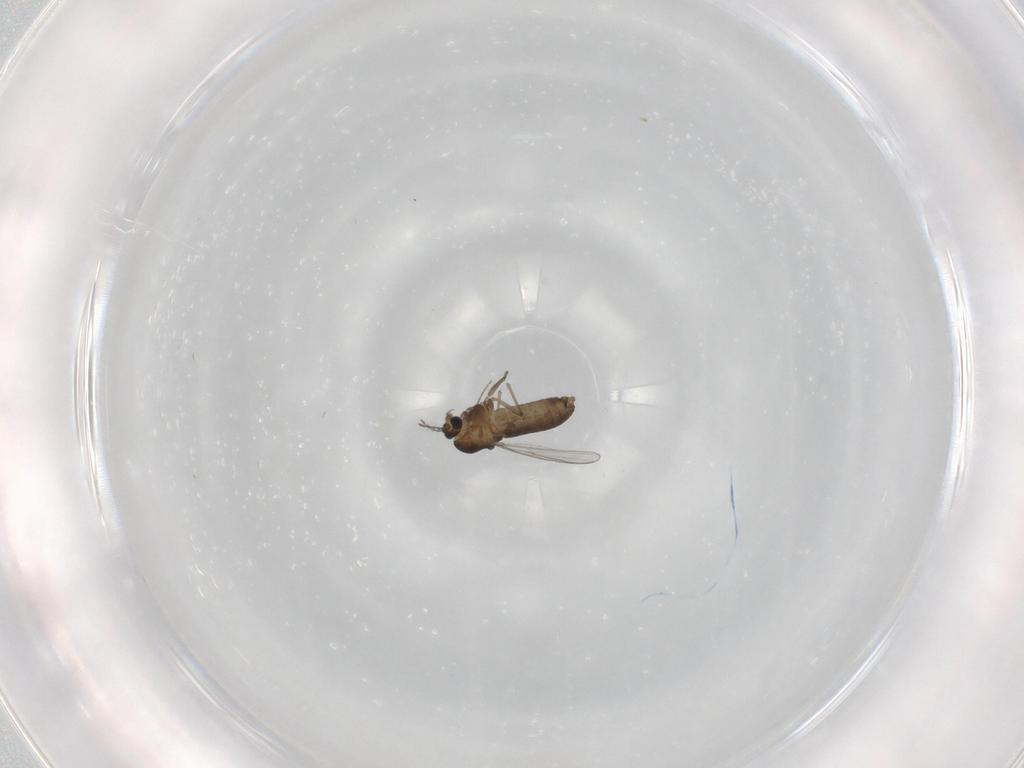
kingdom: Animalia
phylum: Arthropoda
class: Insecta
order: Diptera
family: Chironomidae
